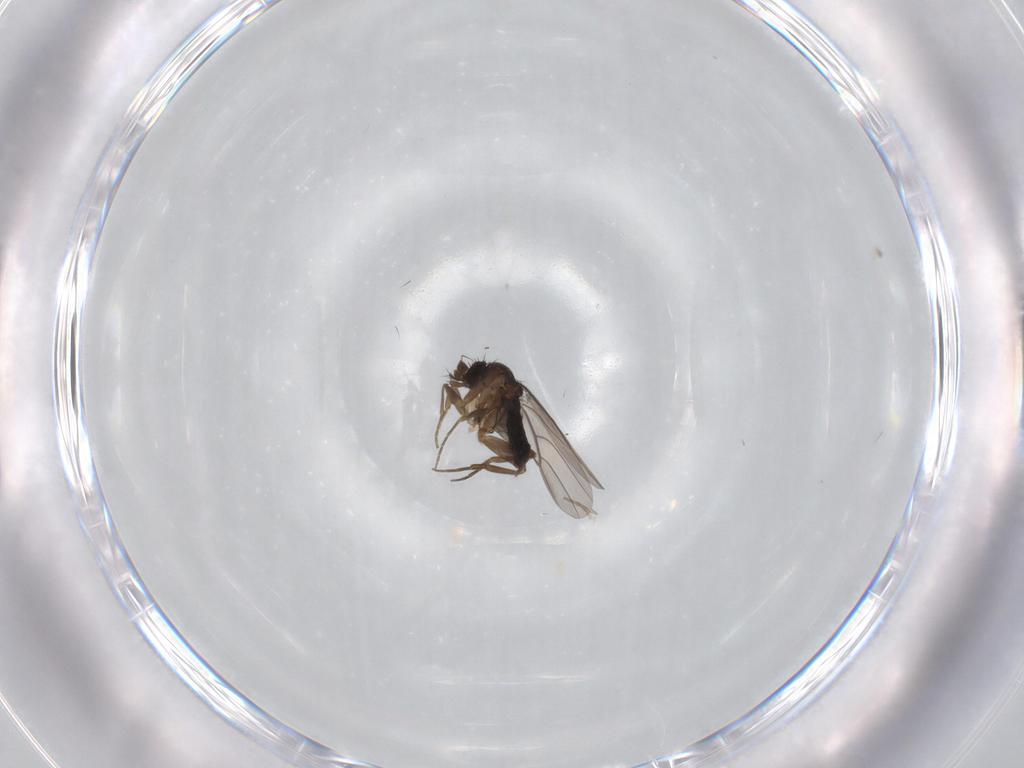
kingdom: Animalia
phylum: Arthropoda
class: Insecta
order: Diptera
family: Phoridae
